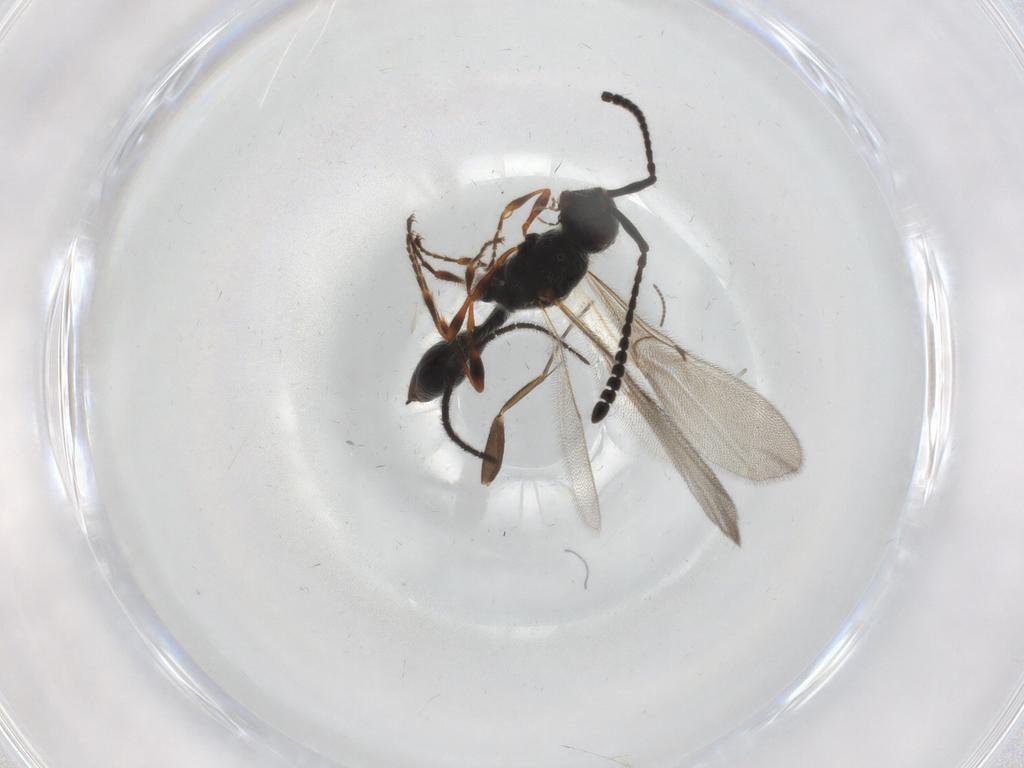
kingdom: Animalia
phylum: Arthropoda
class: Insecta
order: Hymenoptera
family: Diapriidae
